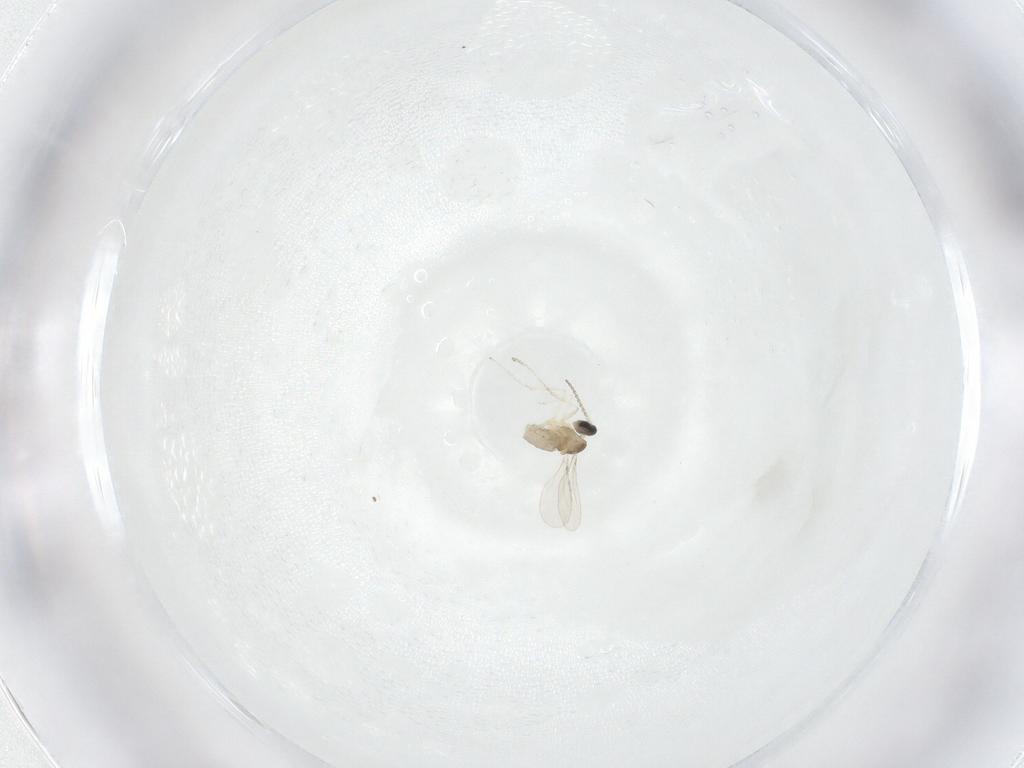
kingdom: Animalia
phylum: Arthropoda
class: Insecta
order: Diptera
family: Cecidomyiidae
